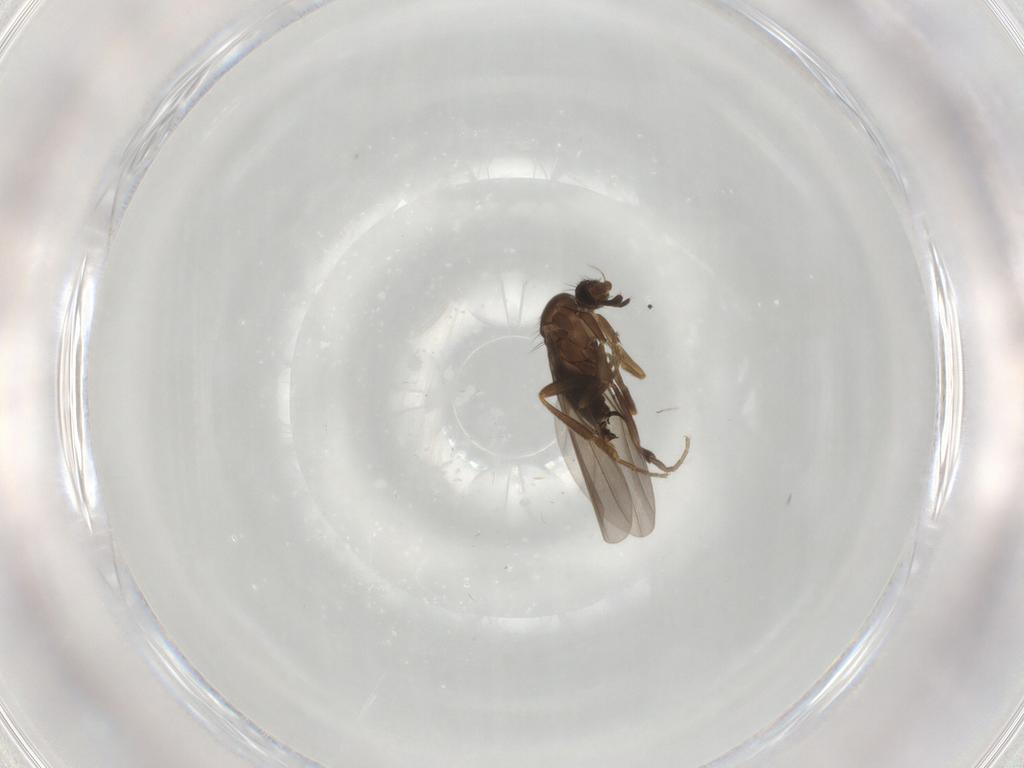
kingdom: Animalia
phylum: Arthropoda
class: Insecta
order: Diptera
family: Phoridae
